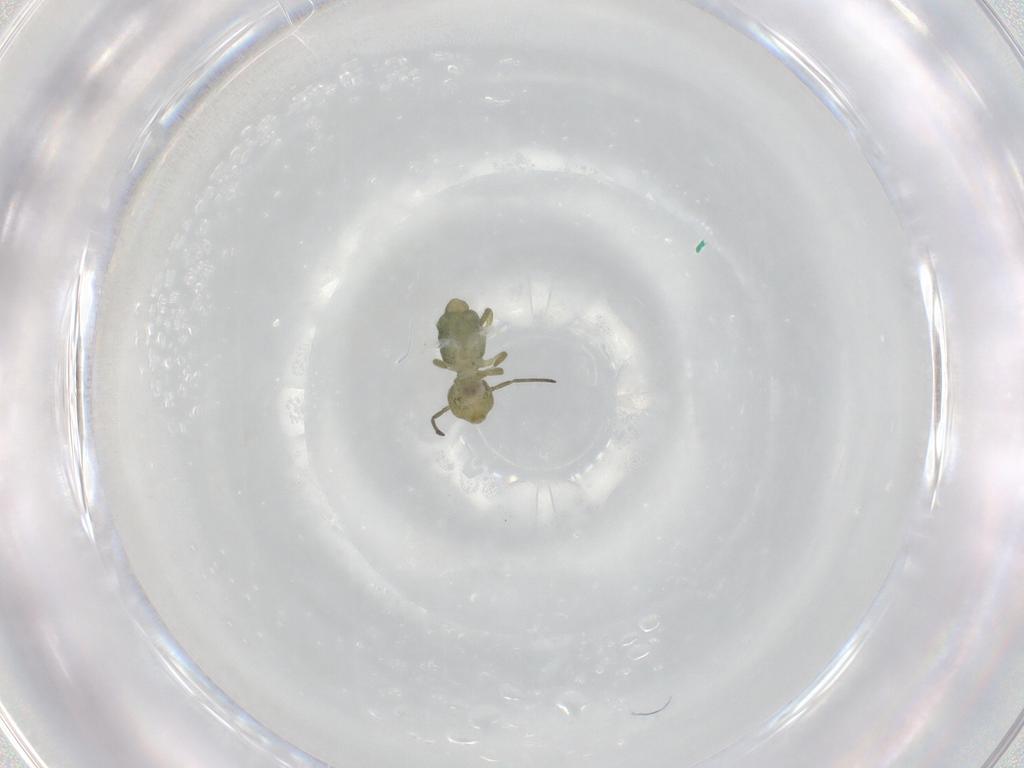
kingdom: Animalia
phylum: Arthropoda
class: Collembola
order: Symphypleona
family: Sminthuridae
